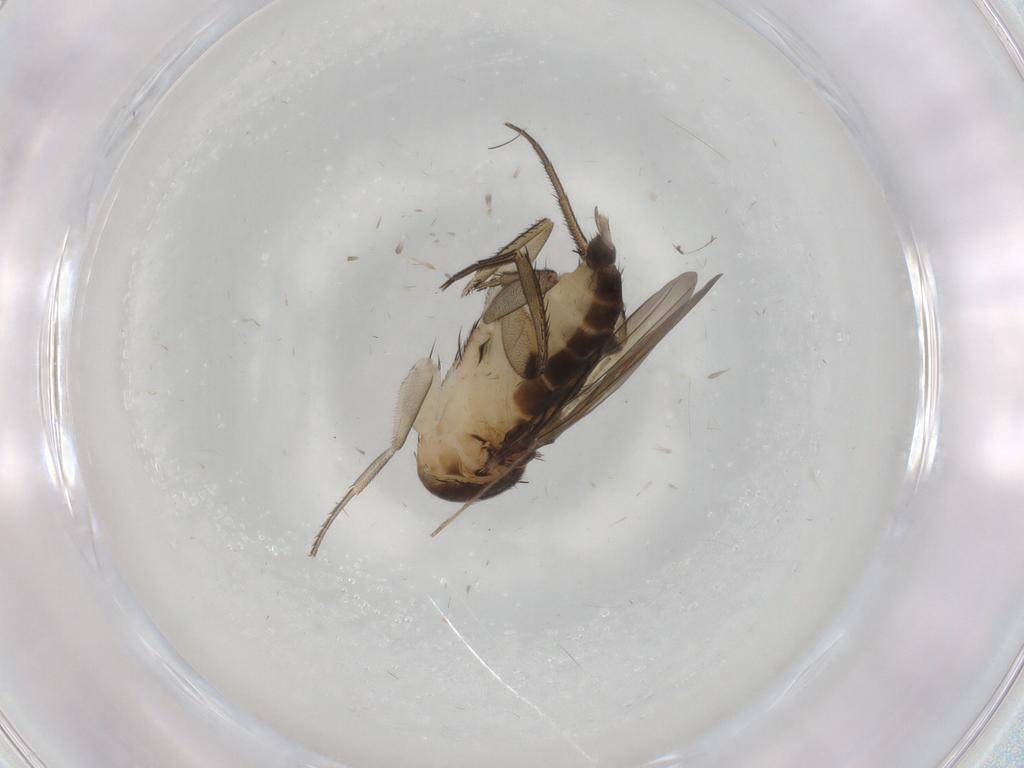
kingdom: Animalia
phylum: Arthropoda
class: Insecta
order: Diptera
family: Phoridae
